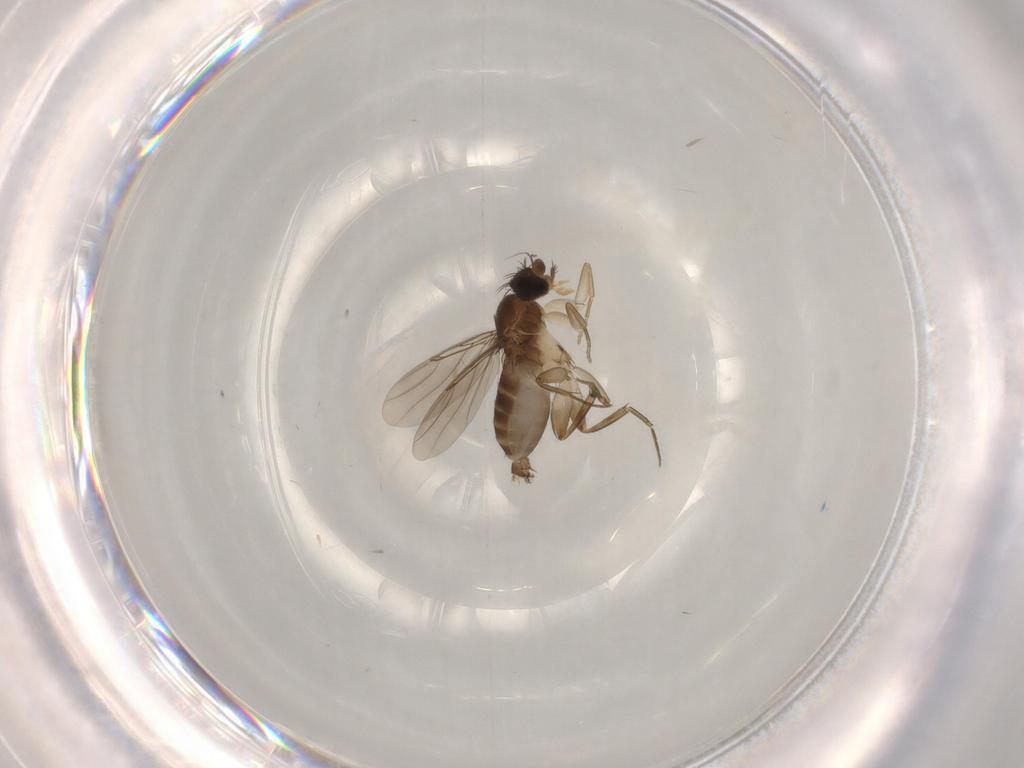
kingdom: Animalia
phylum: Arthropoda
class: Insecta
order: Diptera
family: Phoridae
